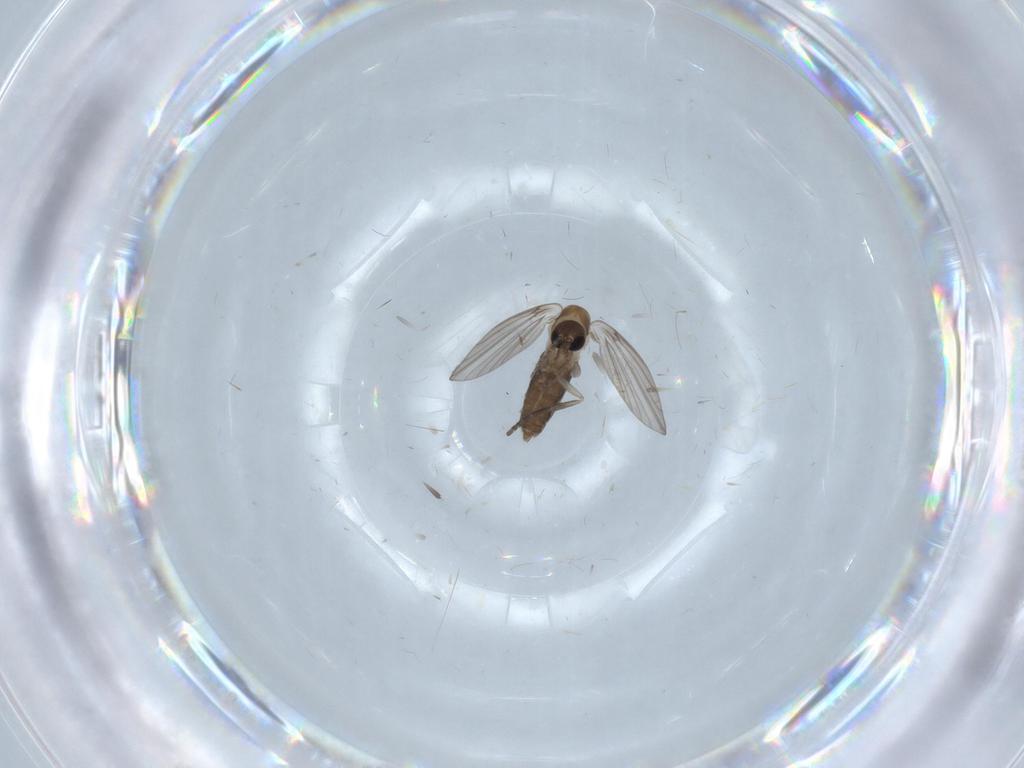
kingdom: Animalia
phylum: Arthropoda
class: Insecta
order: Diptera
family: Psychodidae
